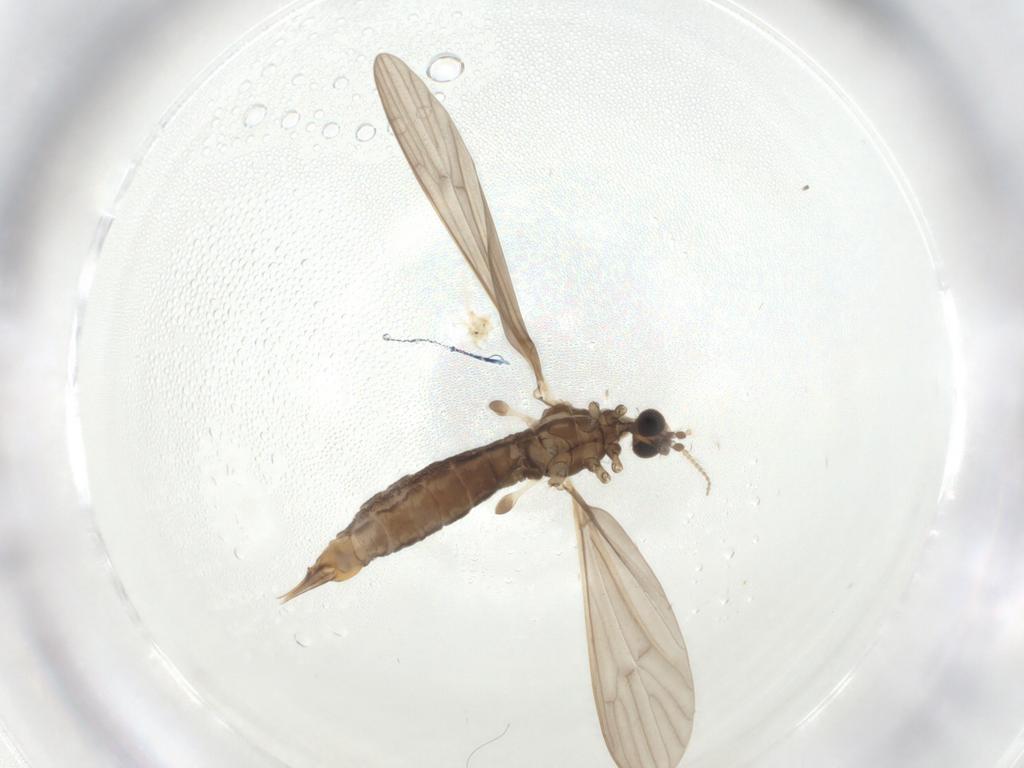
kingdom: Animalia
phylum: Arthropoda
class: Insecta
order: Diptera
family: Limoniidae
